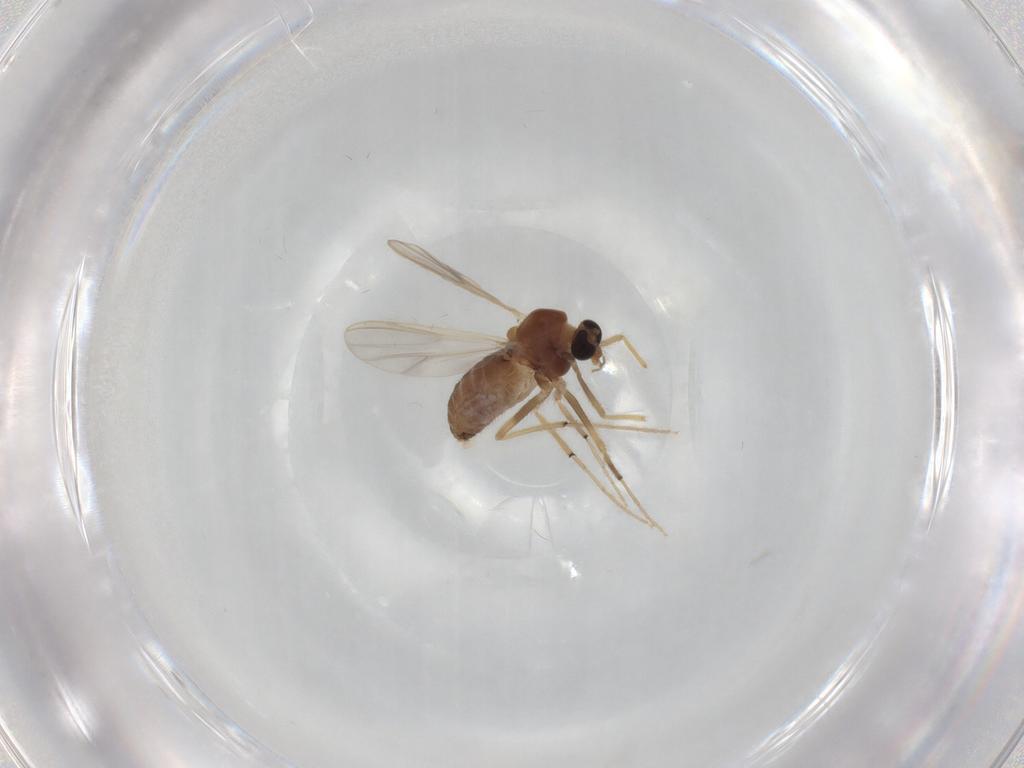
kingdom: Animalia
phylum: Arthropoda
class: Insecta
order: Diptera
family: Chironomidae
